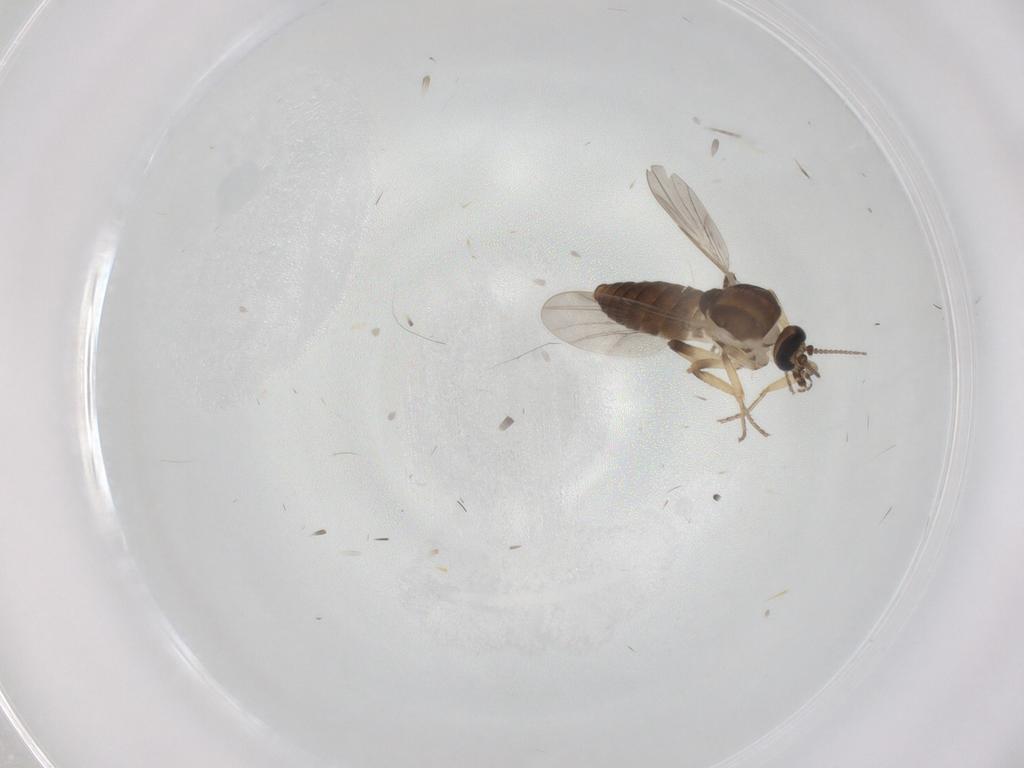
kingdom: Animalia
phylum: Arthropoda
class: Insecta
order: Diptera
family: Ceratopogonidae
